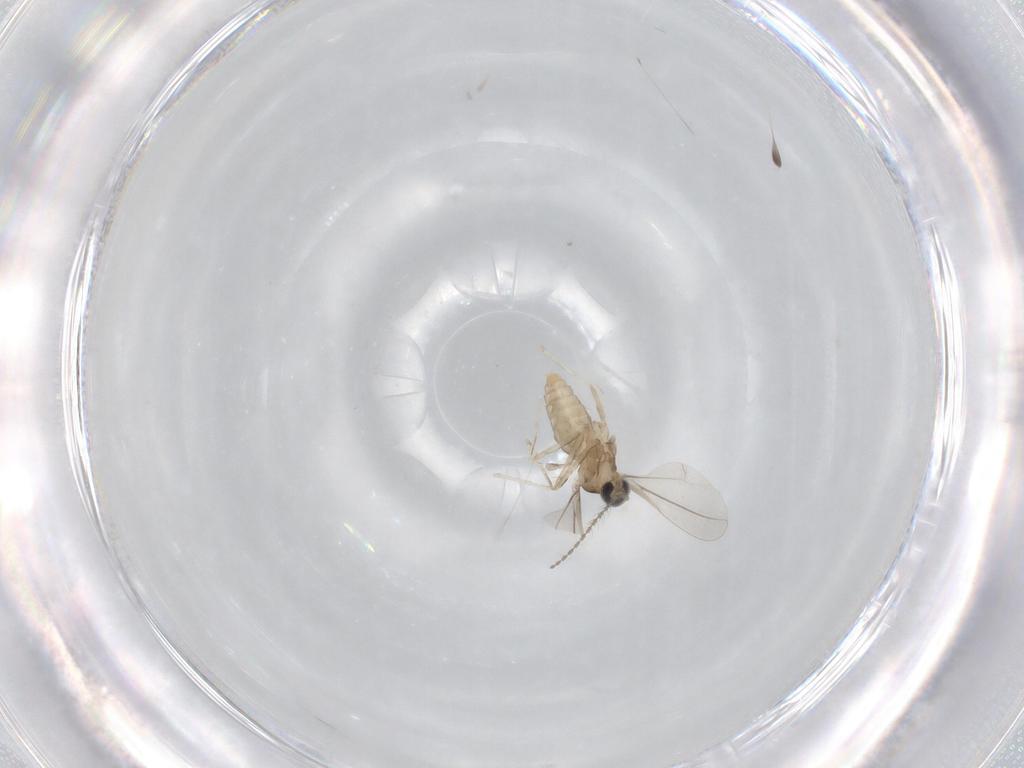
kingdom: Animalia
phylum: Arthropoda
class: Insecta
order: Diptera
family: Cecidomyiidae
